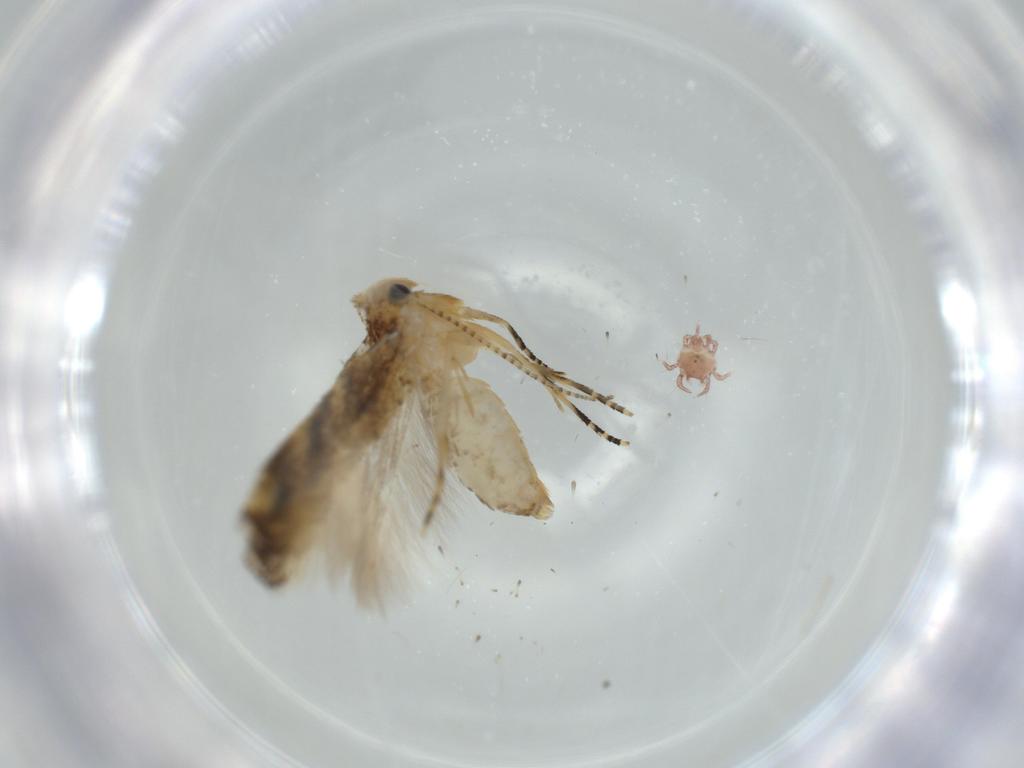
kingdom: Animalia
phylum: Arthropoda
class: Insecta
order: Lepidoptera
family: Bucculatricidae
